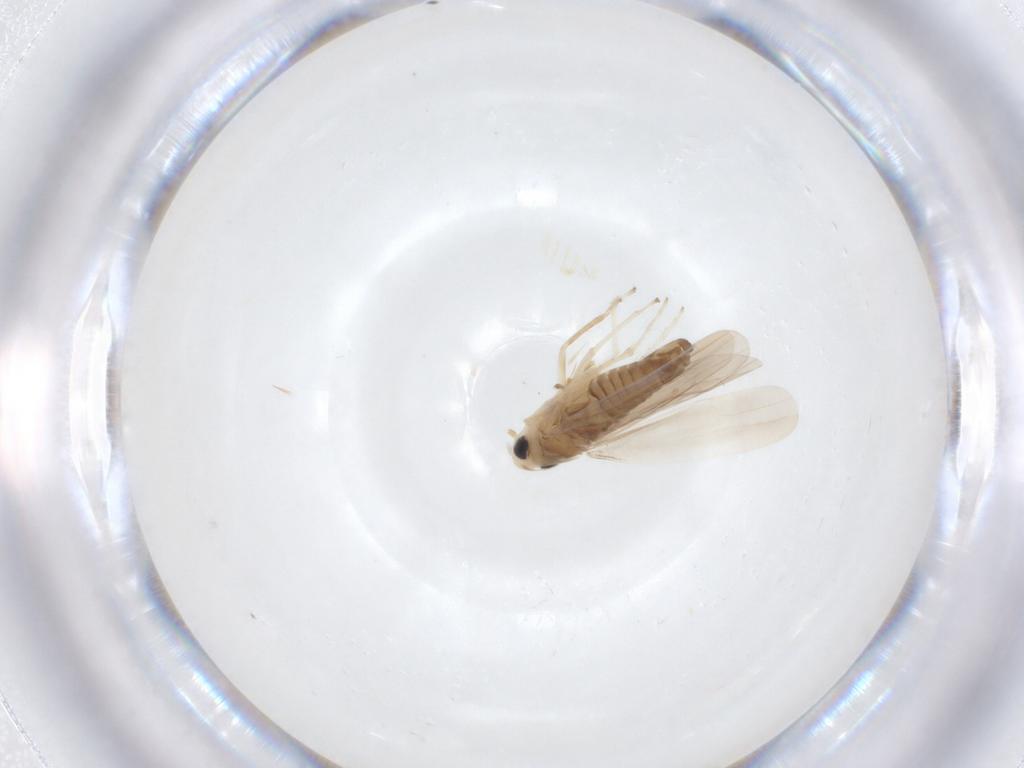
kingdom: Animalia
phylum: Arthropoda
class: Insecta
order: Hemiptera
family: Cicadellidae
